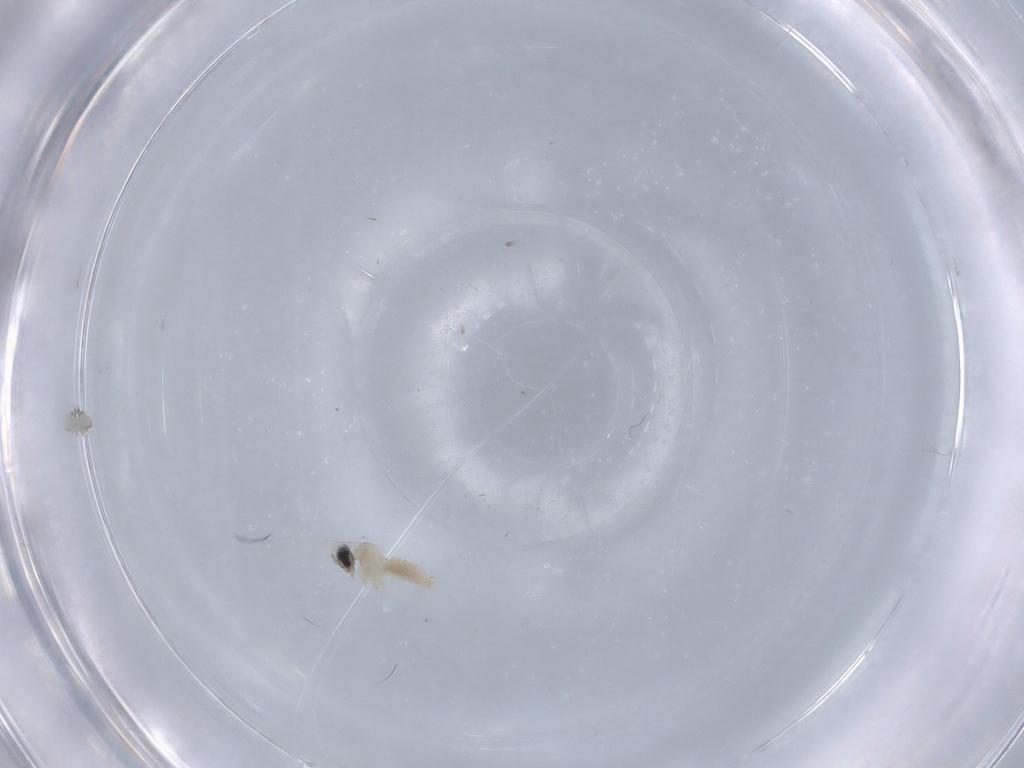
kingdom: Animalia
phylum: Arthropoda
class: Insecta
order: Diptera
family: Cecidomyiidae
